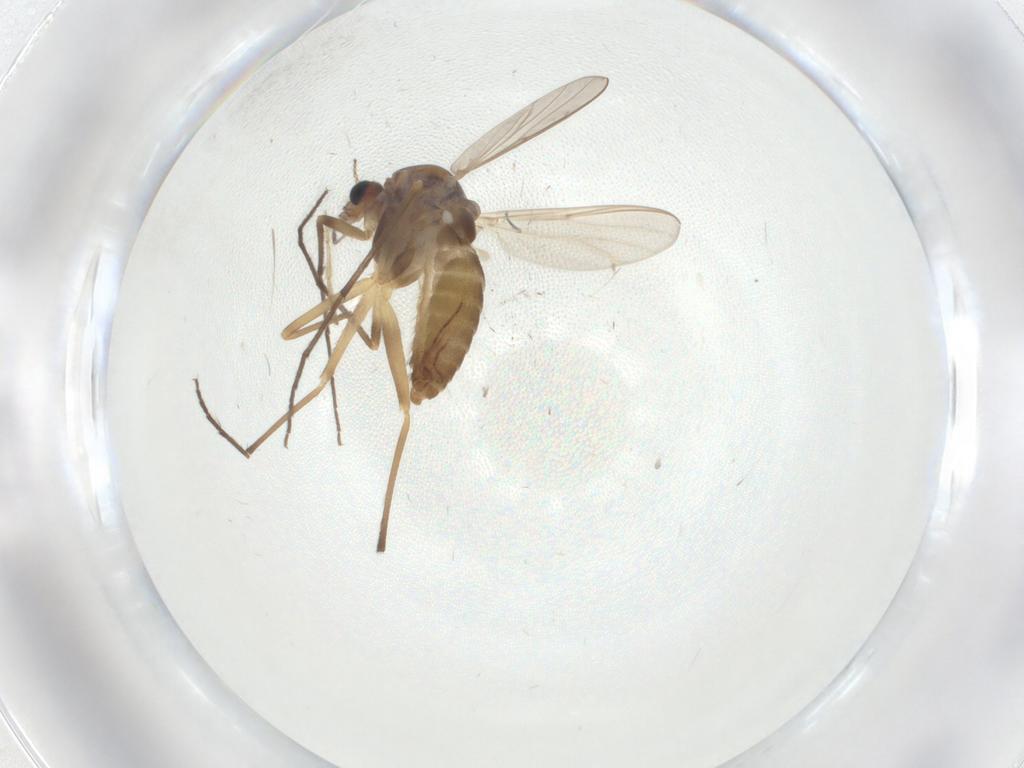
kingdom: Animalia
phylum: Arthropoda
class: Insecta
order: Diptera
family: Chironomidae
